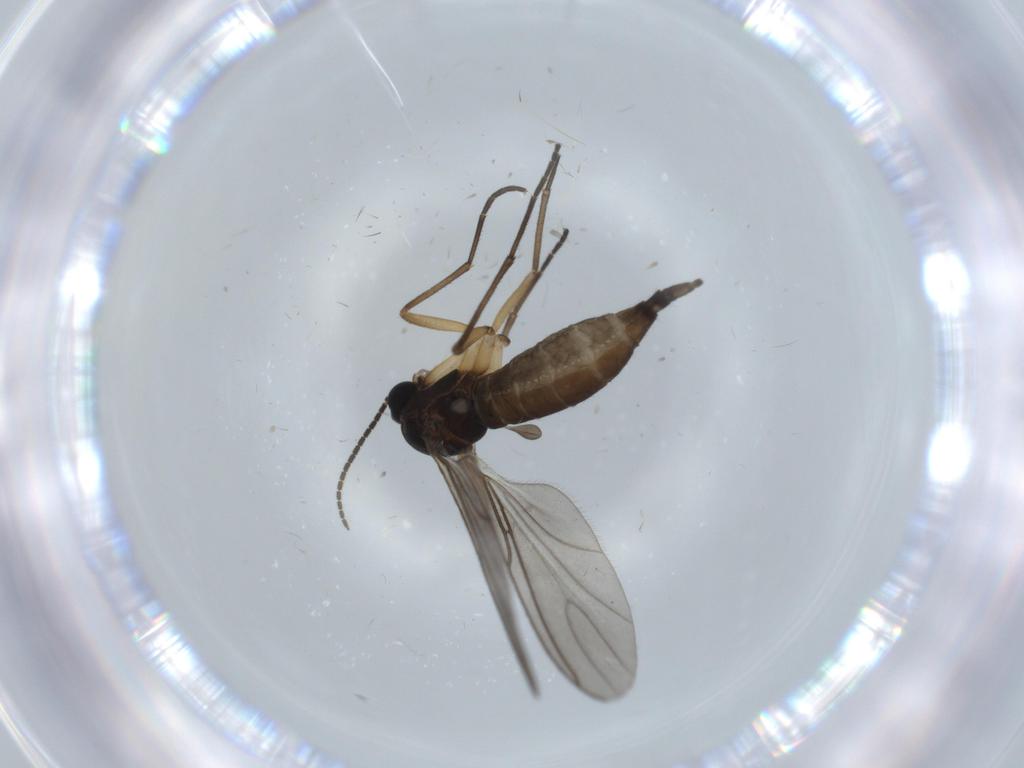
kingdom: Animalia
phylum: Arthropoda
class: Insecta
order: Diptera
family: Sciaridae
